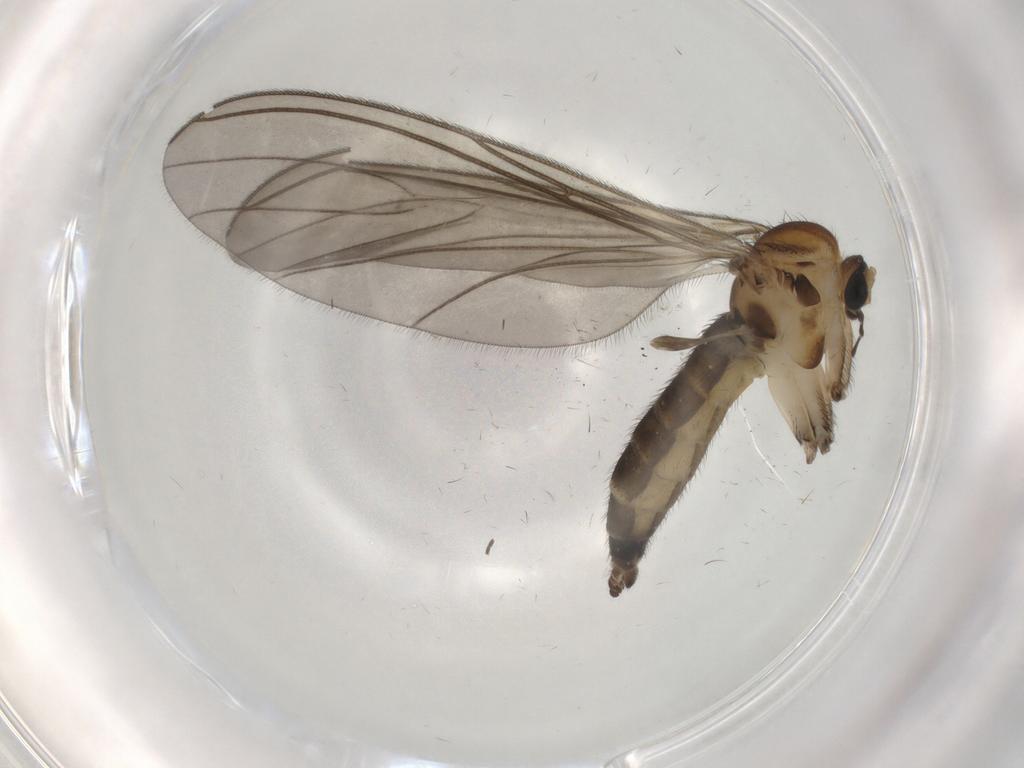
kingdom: Animalia
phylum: Arthropoda
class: Insecta
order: Diptera
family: Sciaridae
